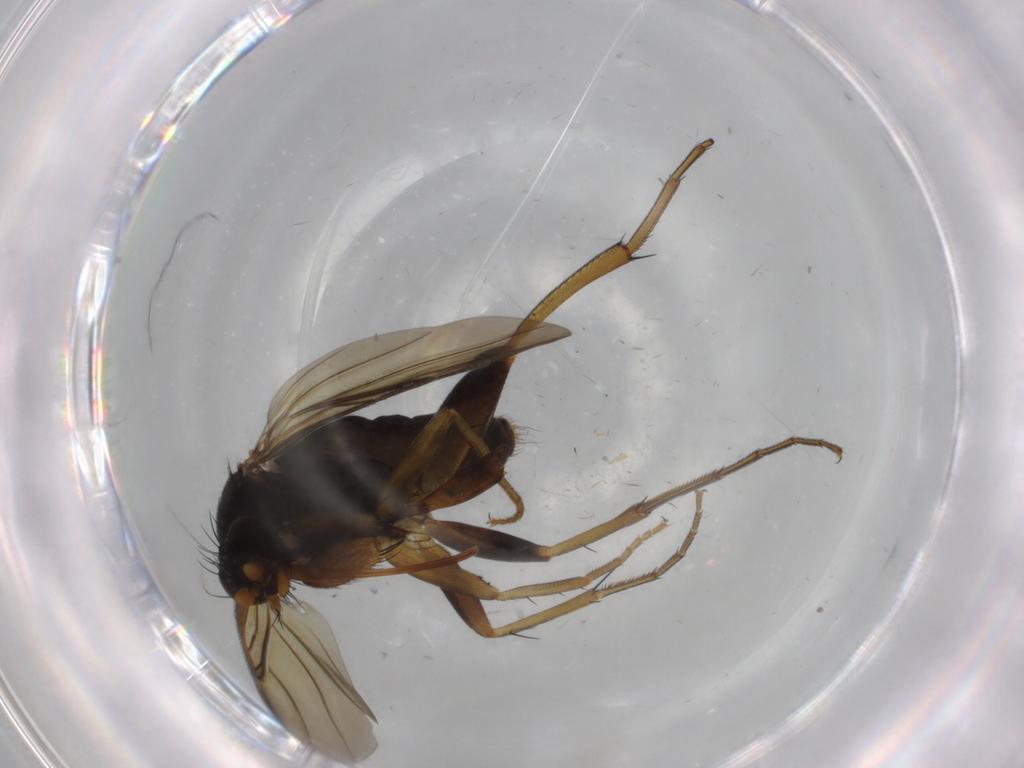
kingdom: Animalia
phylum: Arthropoda
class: Insecta
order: Diptera
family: Phoridae
